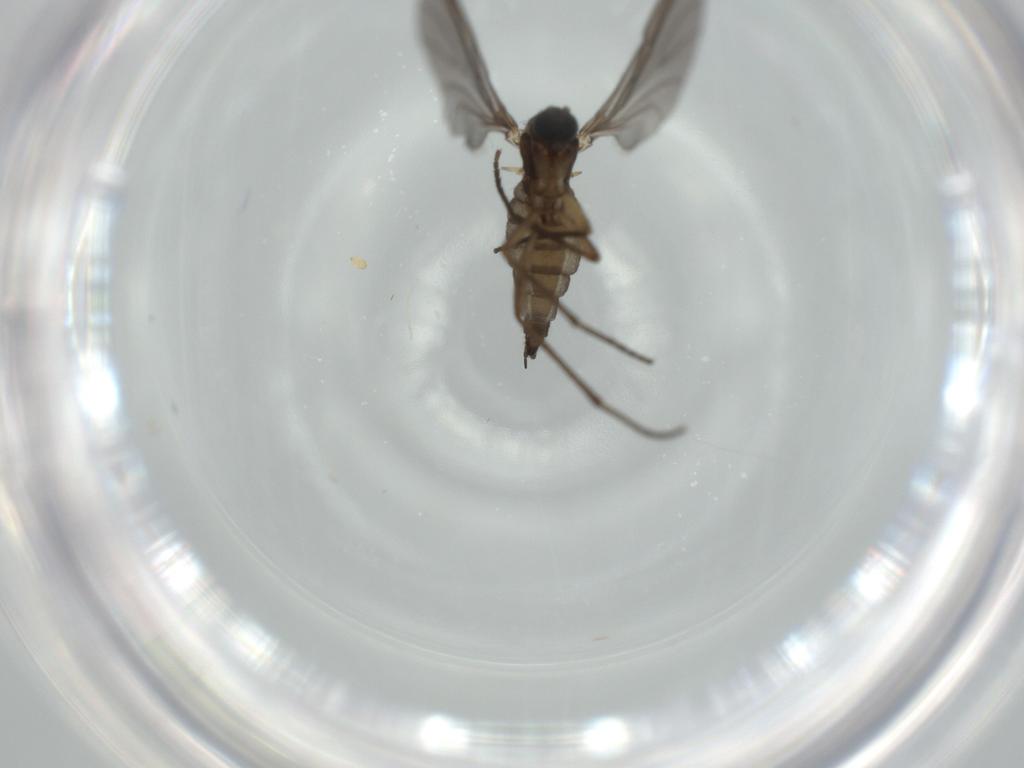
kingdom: Animalia
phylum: Arthropoda
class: Insecta
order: Diptera
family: Sciaridae
